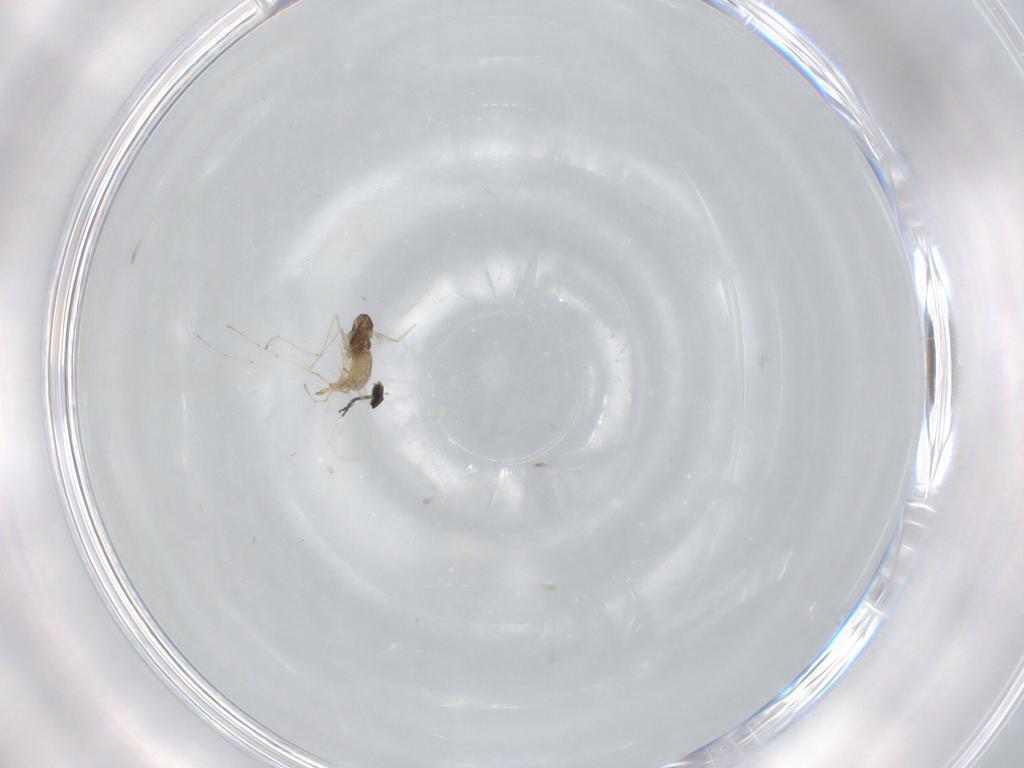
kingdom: Animalia
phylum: Arthropoda
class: Insecta
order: Diptera
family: Cecidomyiidae
